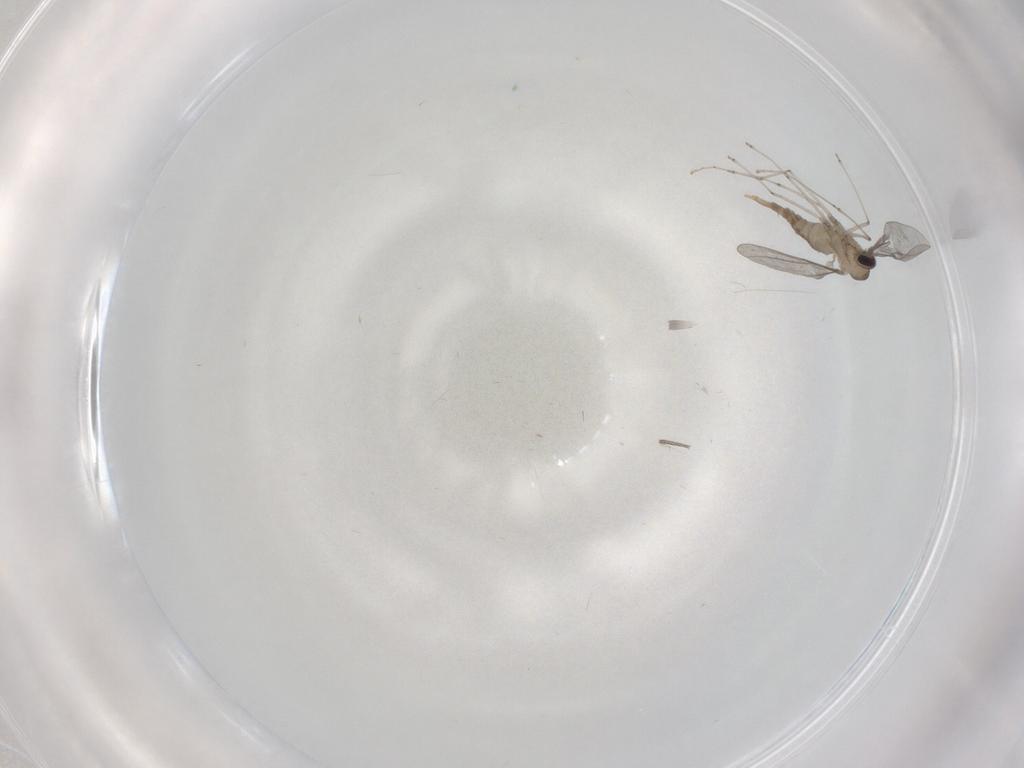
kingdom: Animalia
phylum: Arthropoda
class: Insecta
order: Diptera
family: Cecidomyiidae
